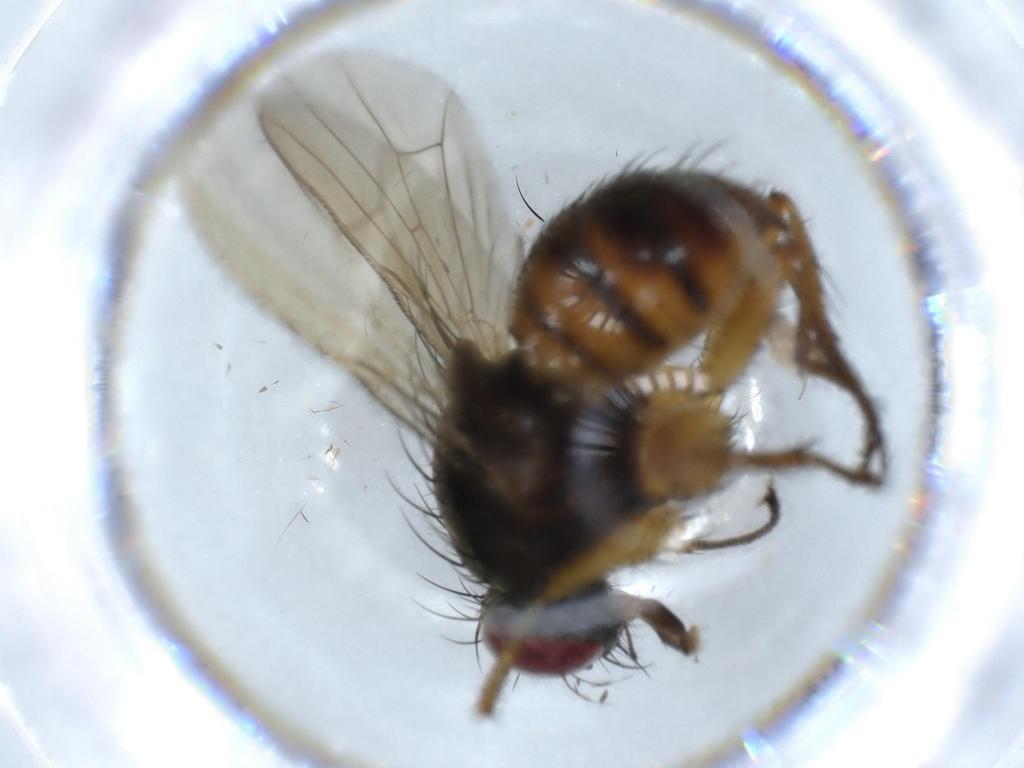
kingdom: Animalia
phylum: Arthropoda
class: Insecta
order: Diptera
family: Muscidae
